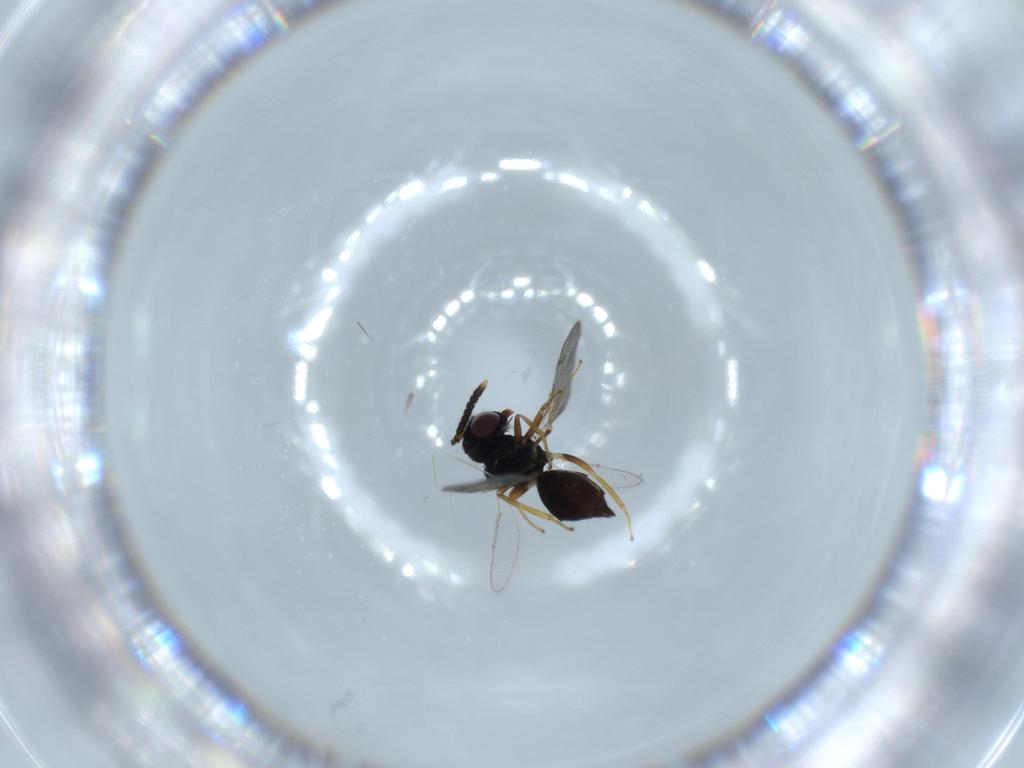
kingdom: Animalia
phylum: Arthropoda
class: Insecta
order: Hymenoptera
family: Pirenidae
